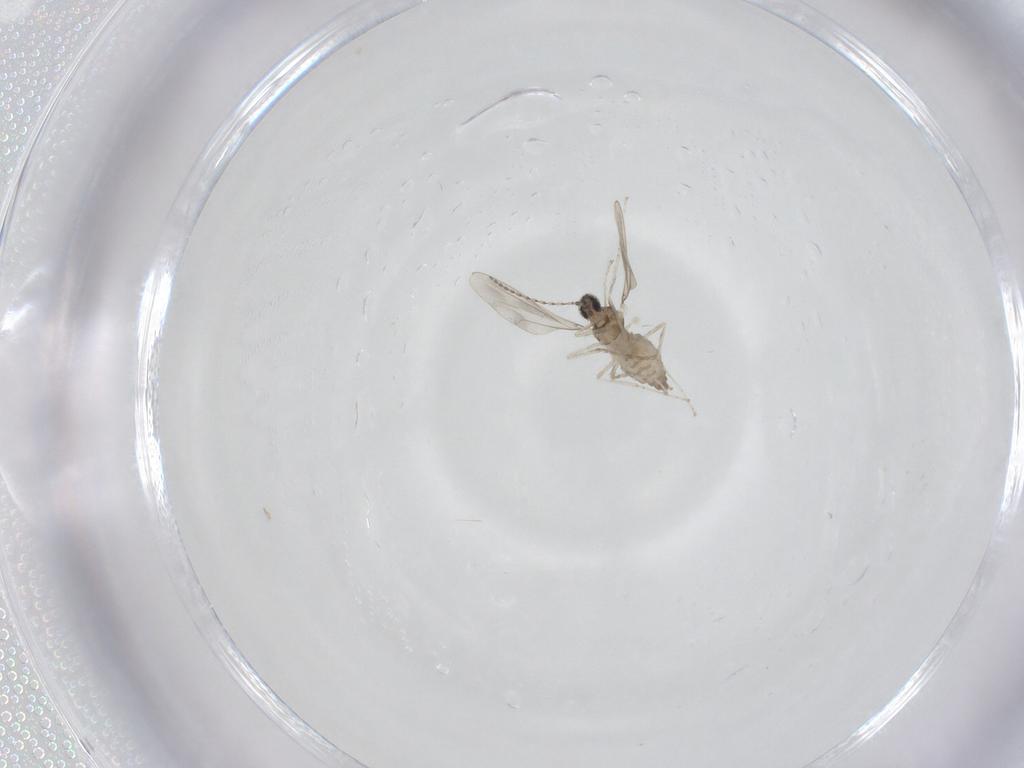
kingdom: Animalia
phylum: Arthropoda
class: Insecta
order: Diptera
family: Cecidomyiidae
